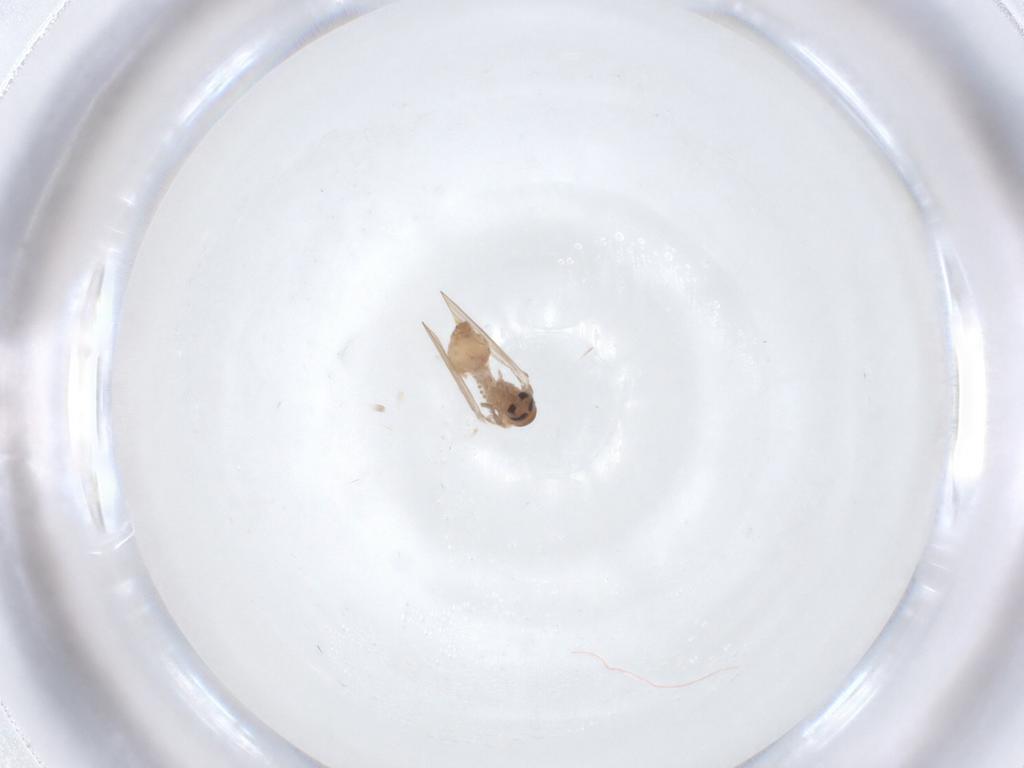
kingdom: Animalia
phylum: Arthropoda
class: Insecta
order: Diptera
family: Psychodidae
